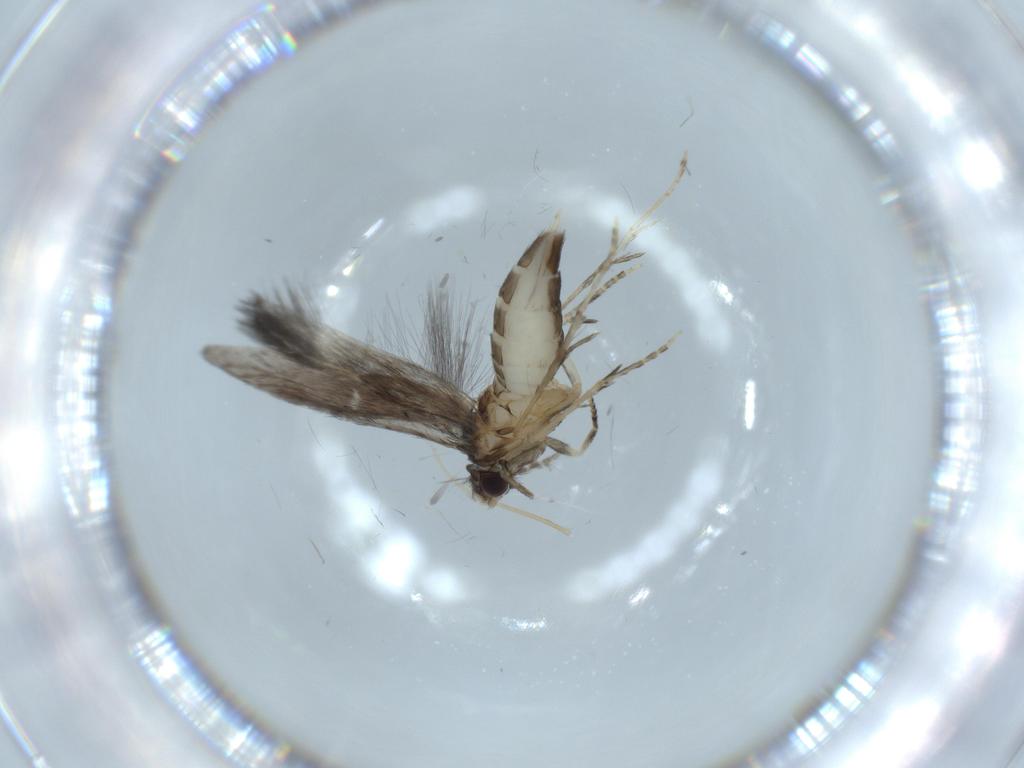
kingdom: Animalia
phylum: Arthropoda
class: Insecta
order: Trichoptera
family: Hydroptilidae
